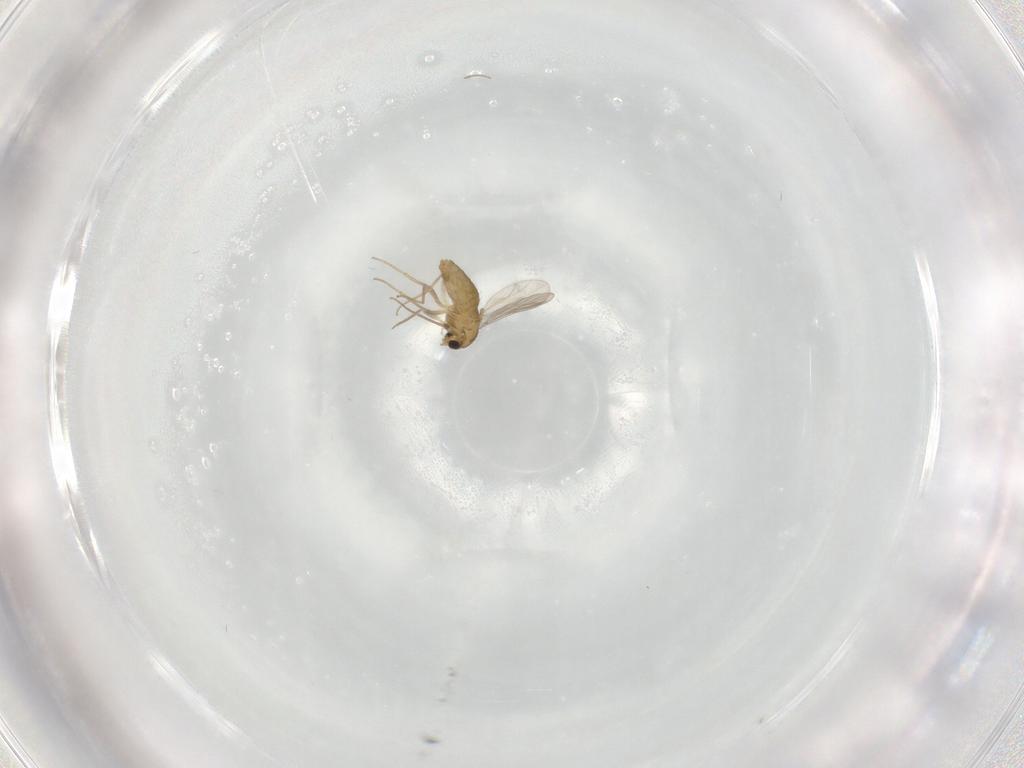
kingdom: Animalia
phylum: Arthropoda
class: Insecta
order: Diptera
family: Chironomidae
